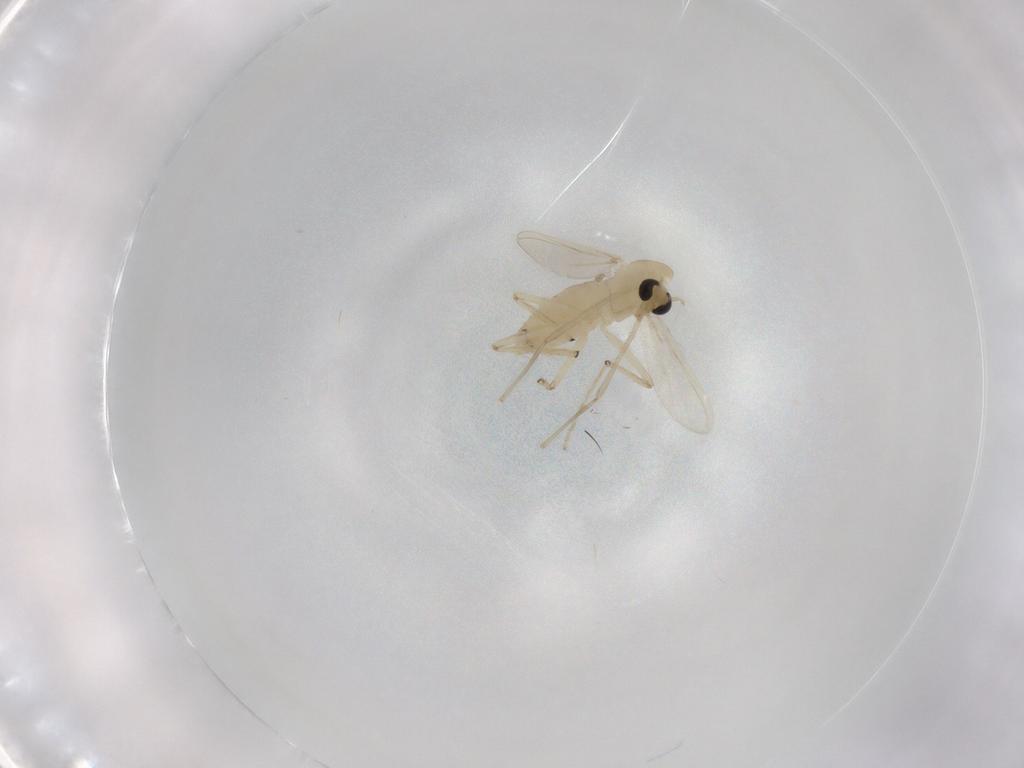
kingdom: Animalia
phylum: Arthropoda
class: Insecta
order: Diptera
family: Chironomidae
